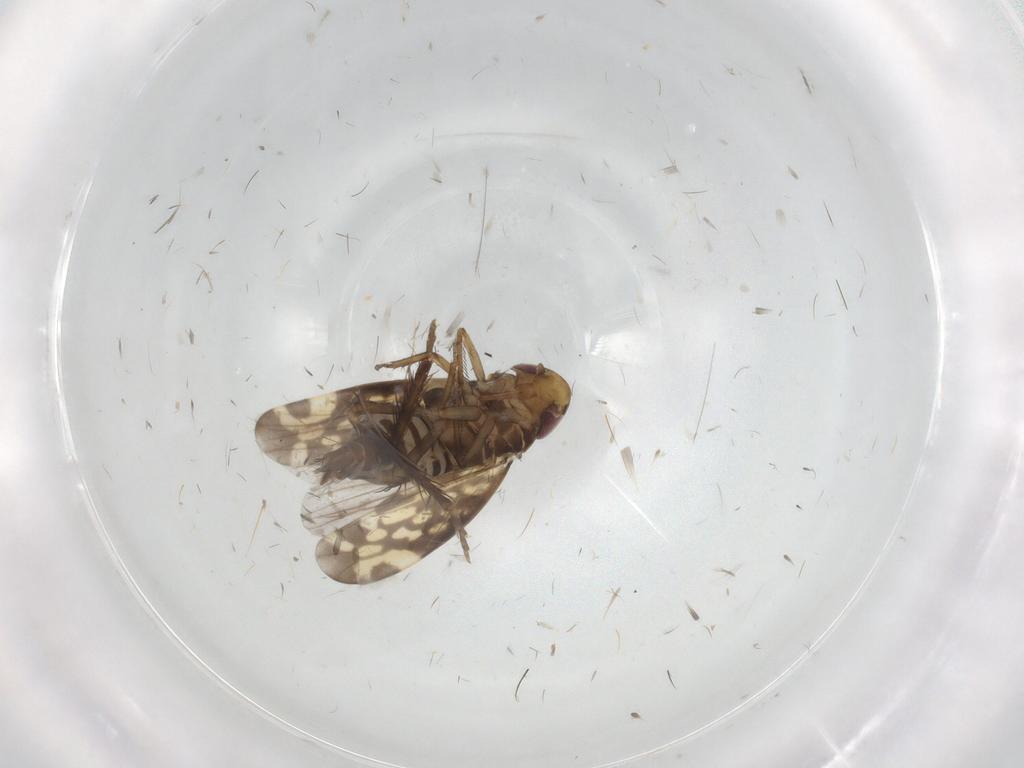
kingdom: Animalia
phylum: Arthropoda
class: Insecta
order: Hemiptera
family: Cicadellidae
